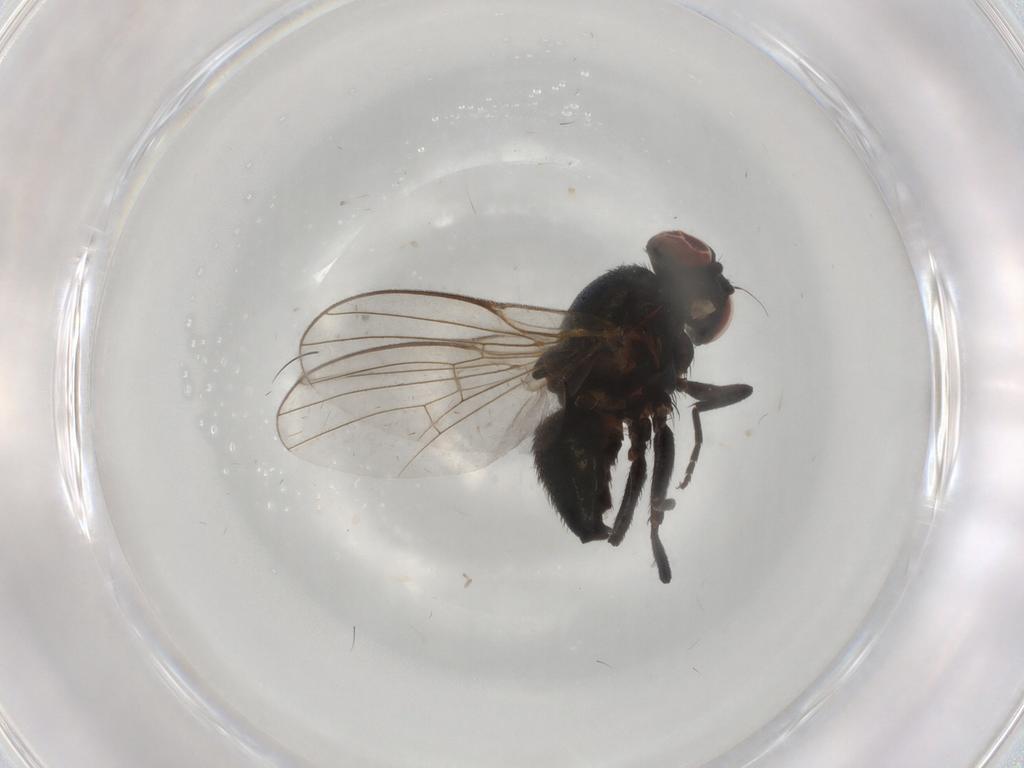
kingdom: Animalia
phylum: Arthropoda
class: Insecta
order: Diptera
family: Agromyzidae
